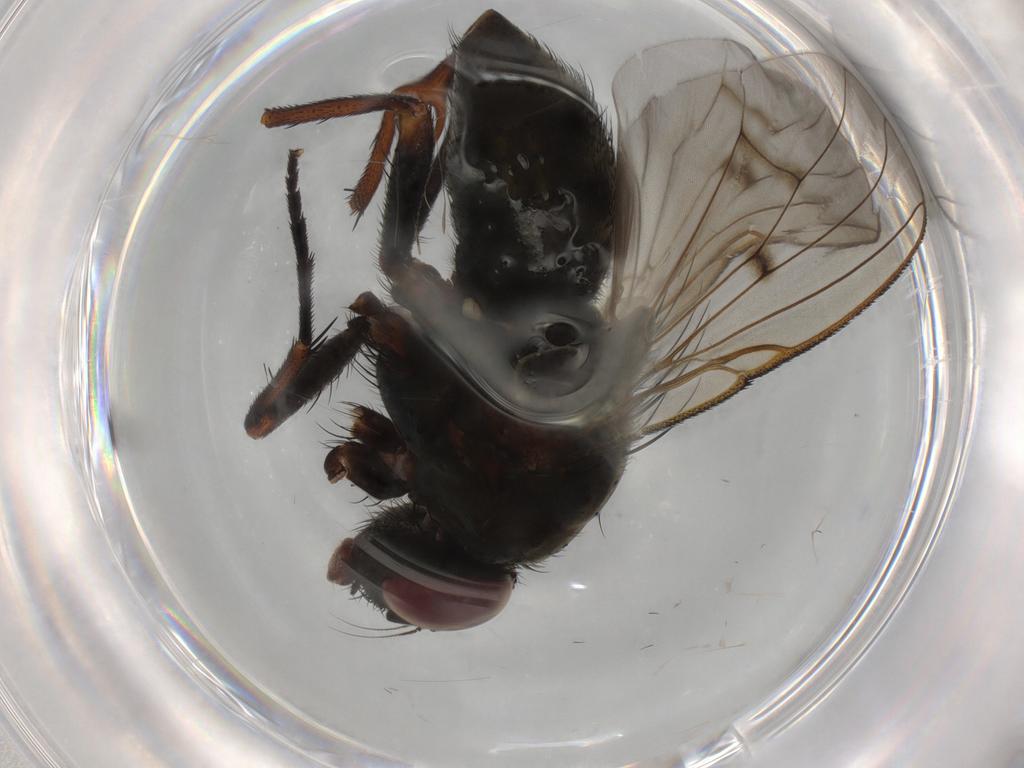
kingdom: Animalia
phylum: Arthropoda
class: Insecta
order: Diptera
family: Muscidae
